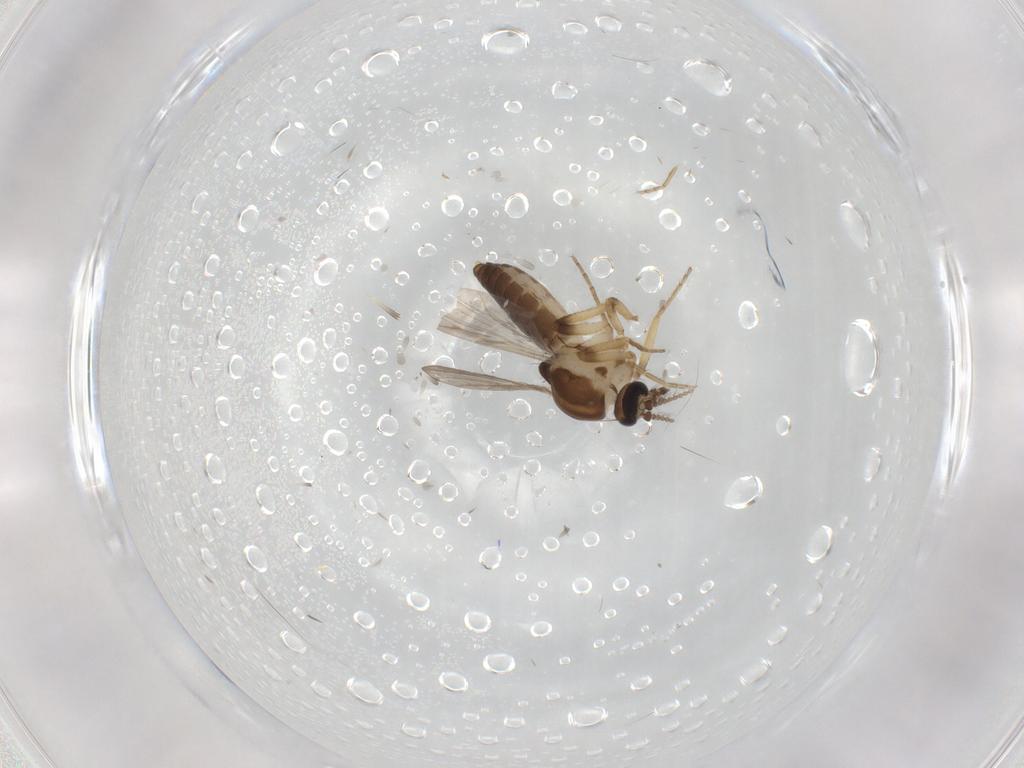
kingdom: Animalia
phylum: Arthropoda
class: Insecta
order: Diptera
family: Ceratopogonidae
